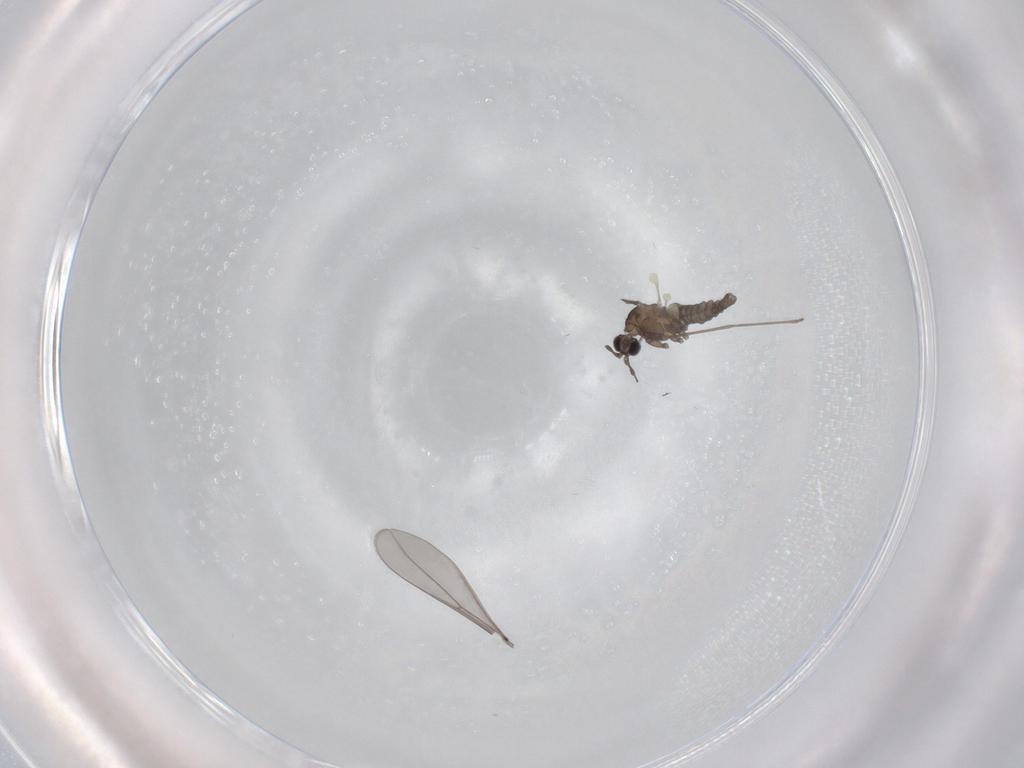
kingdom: Animalia
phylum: Arthropoda
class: Insecta
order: Diptera
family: Cecidomyiidae
